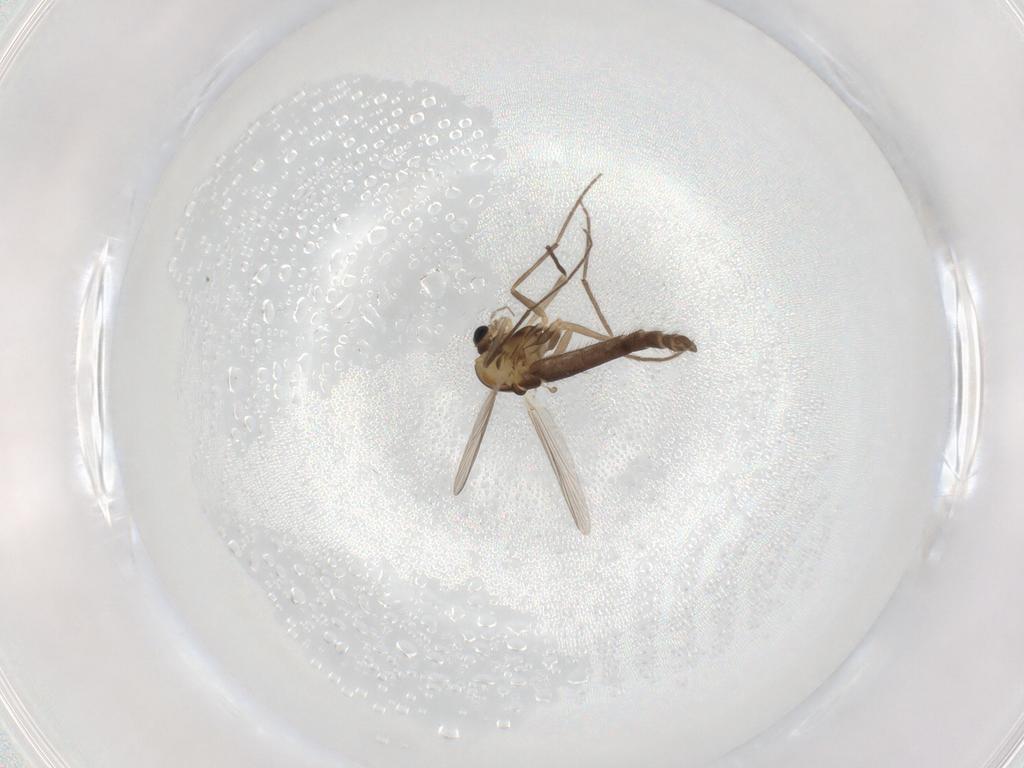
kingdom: Animalia
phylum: Arthropoda
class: Insecta
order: Diptera
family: Chironomidae
